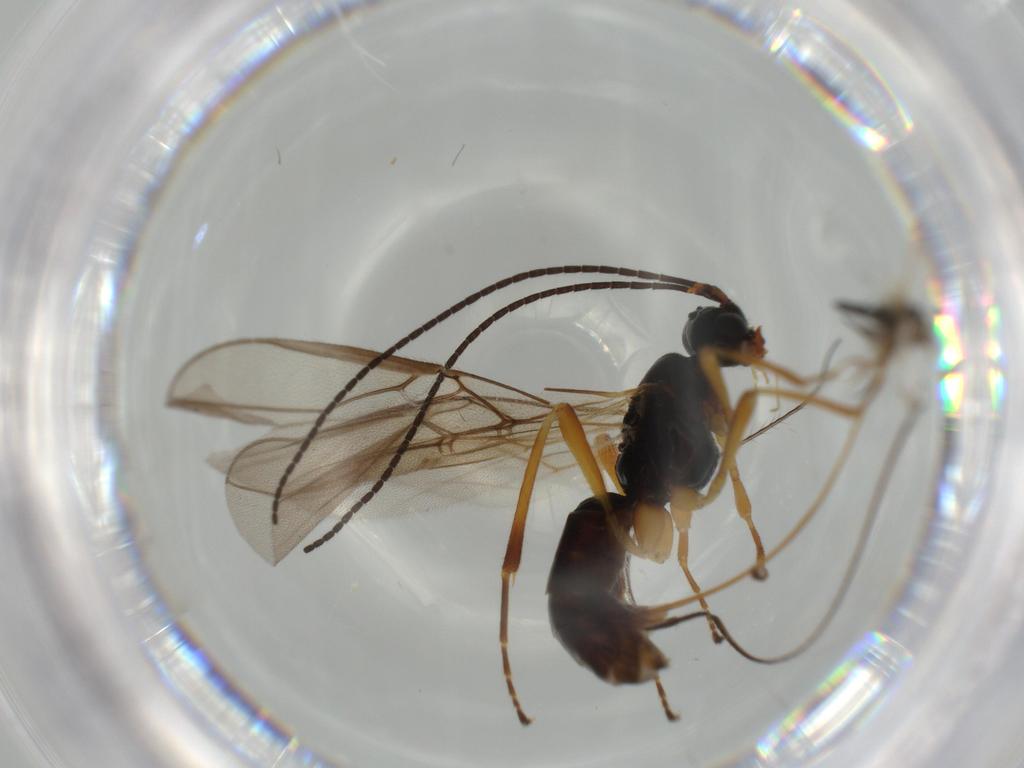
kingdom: Animalia
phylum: Arthropoda
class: Insecta
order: Hymenoptera
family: Braconidae
